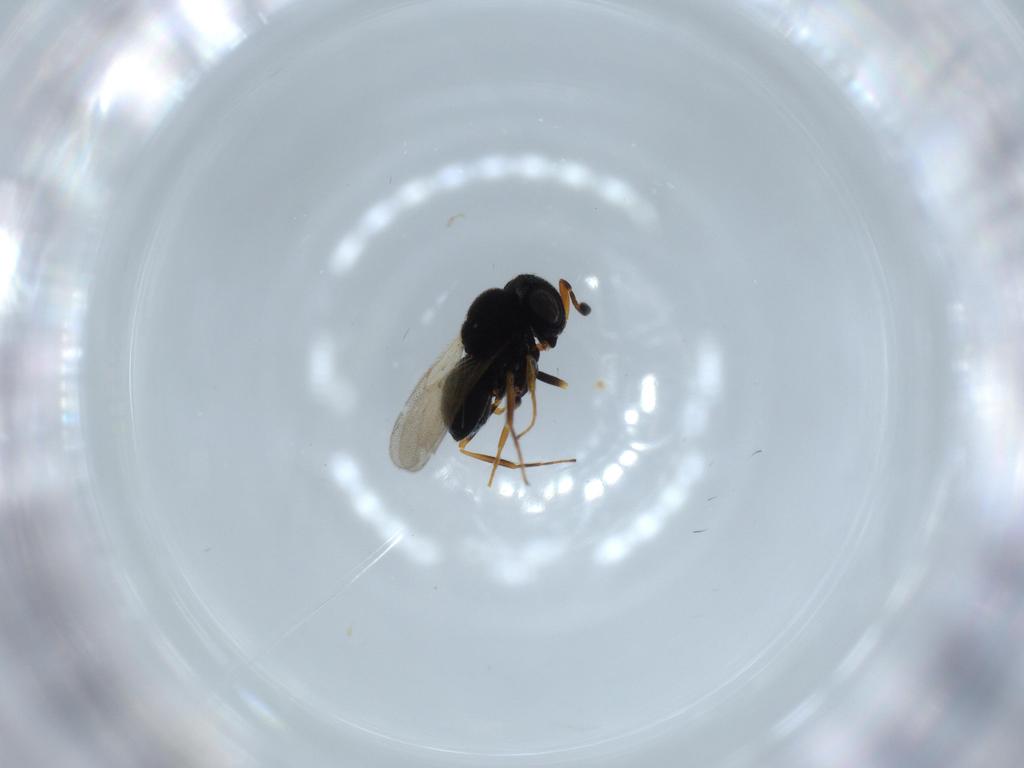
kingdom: Animalia
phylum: Arthropoda
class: Insecta
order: Hymenoptera
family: Scelionidae
